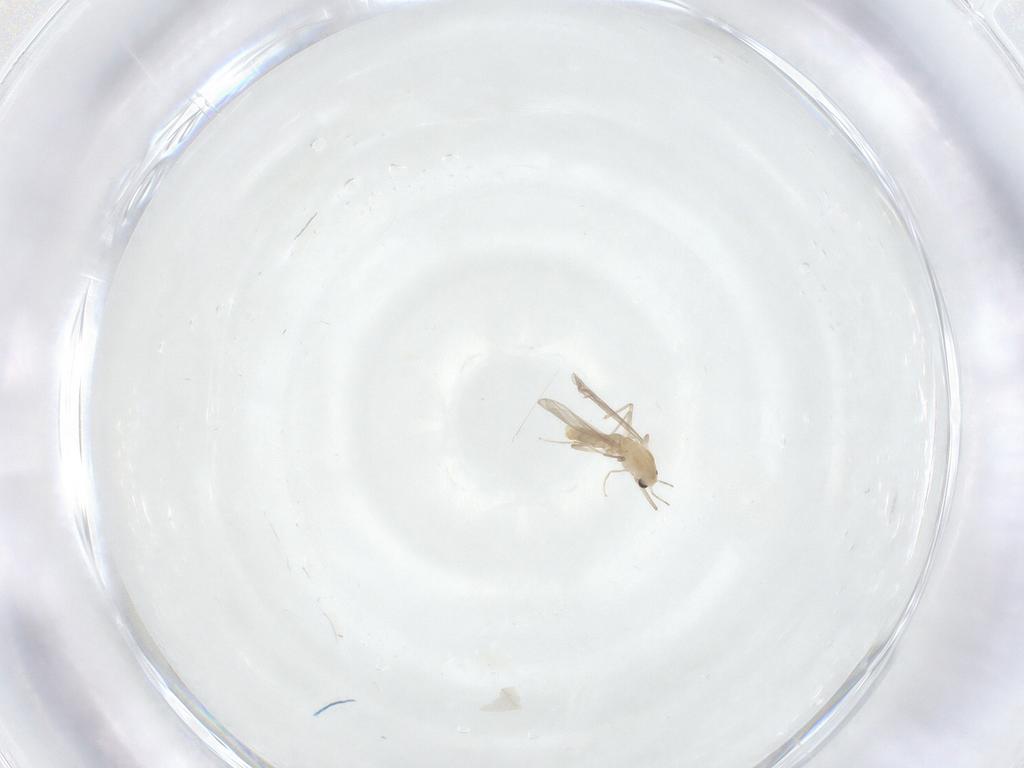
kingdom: Animalia
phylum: Arthropoda
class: Insecta
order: Diptera
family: Chironomidae
